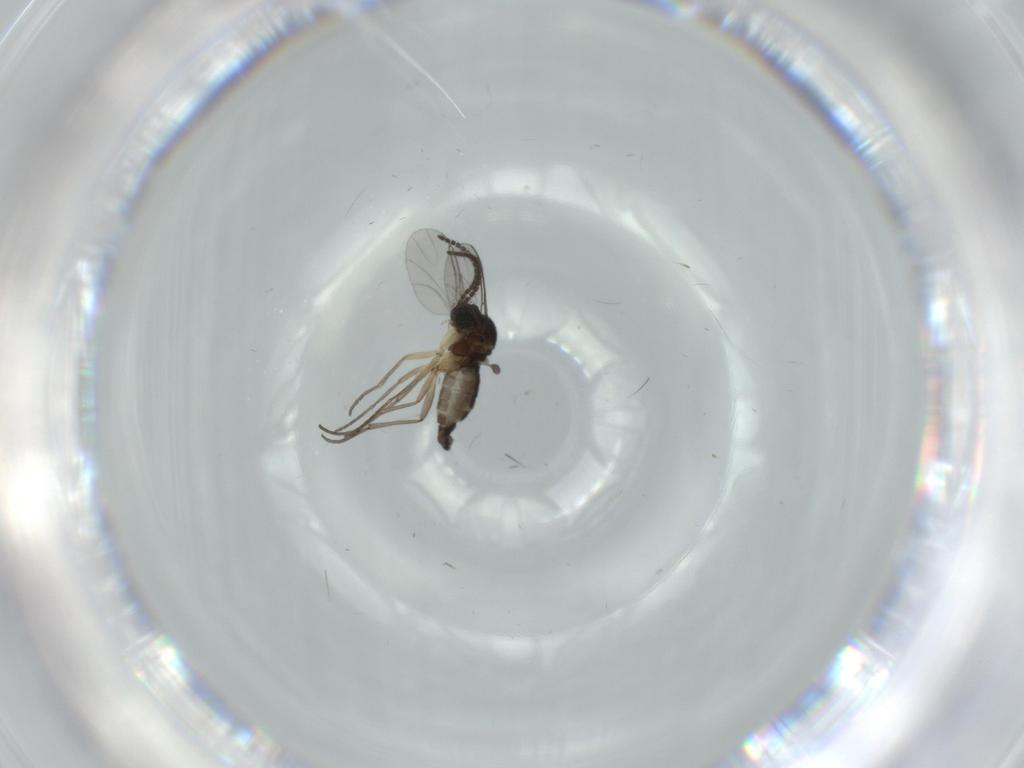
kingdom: Animalia
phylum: Arthropoda
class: Insecta
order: Diptera
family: Sciaridae
